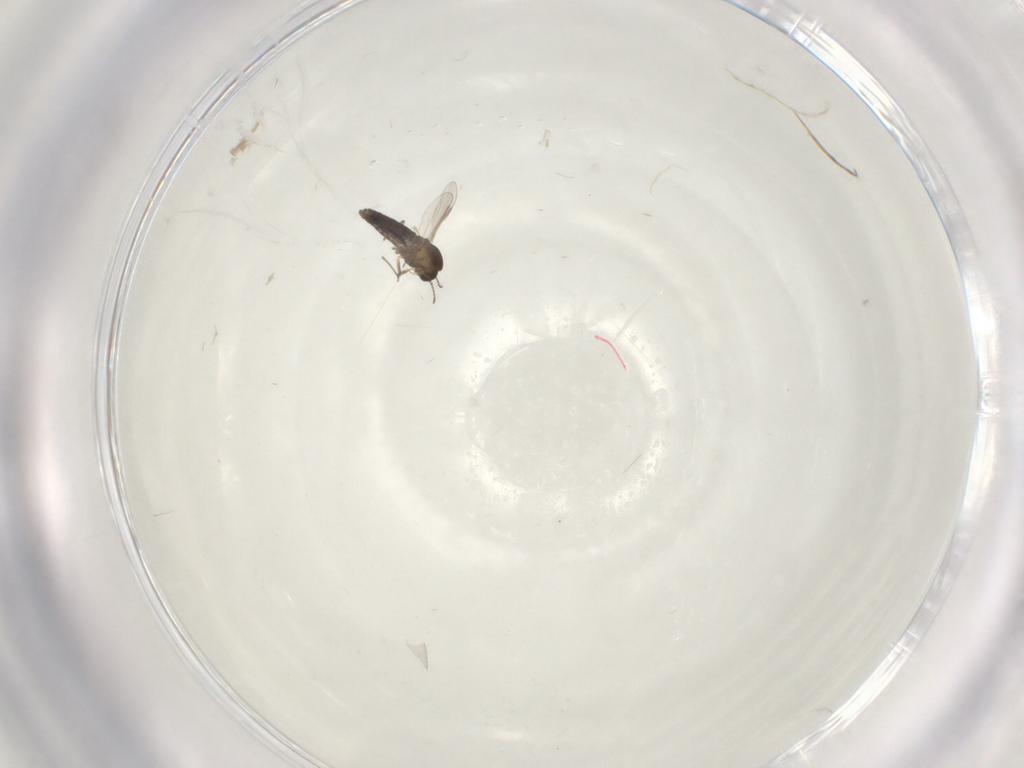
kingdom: Animalia
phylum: Arthropoda
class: Insecta
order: Diptera
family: Chironomidae
